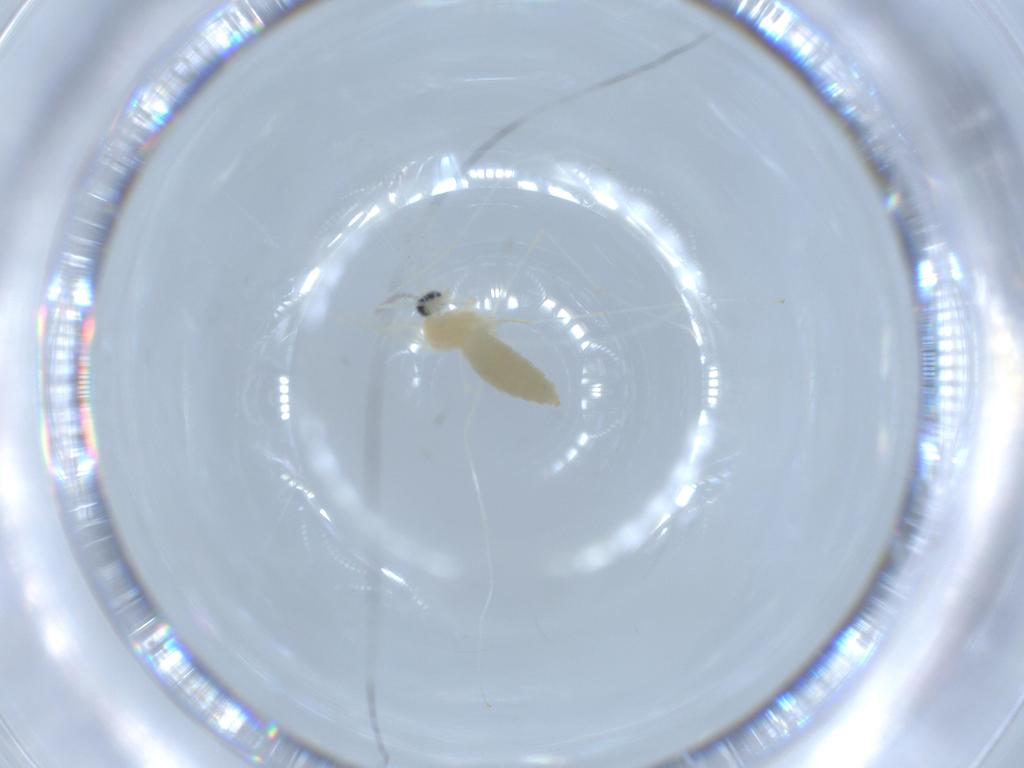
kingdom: Animalia
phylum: Arthropoda
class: Insecta
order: Diptera
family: Cecidomyiidae
